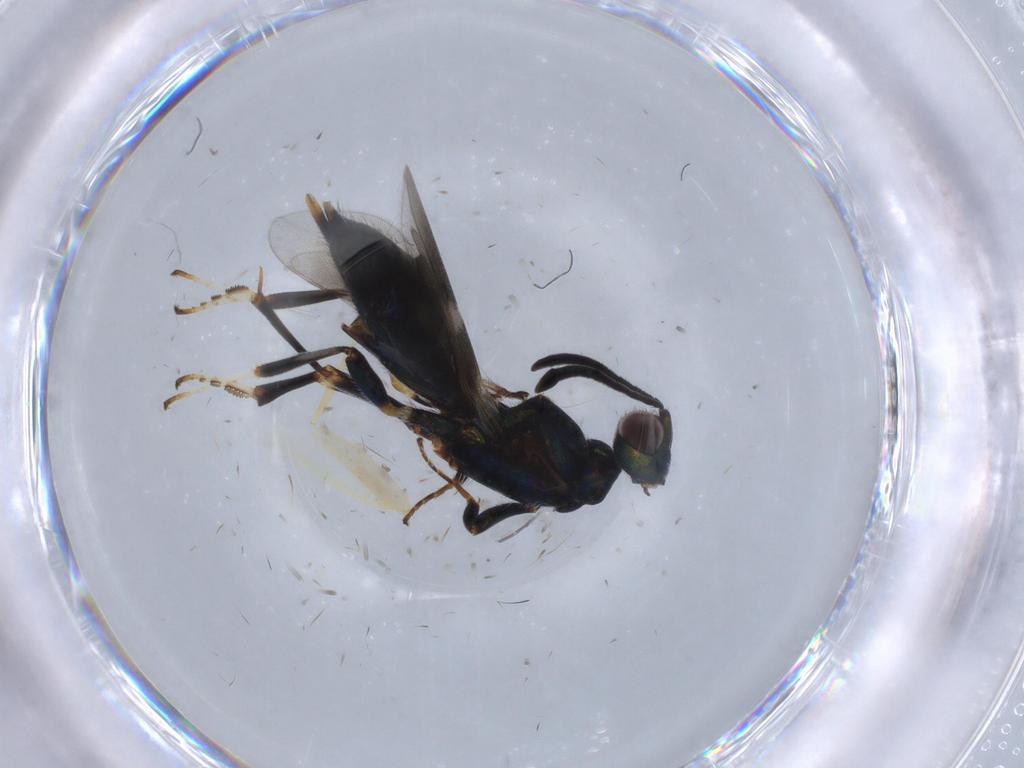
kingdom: Animalia
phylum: Arthropoda
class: Insecta
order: Hymenoptera
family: Eupelmidae
